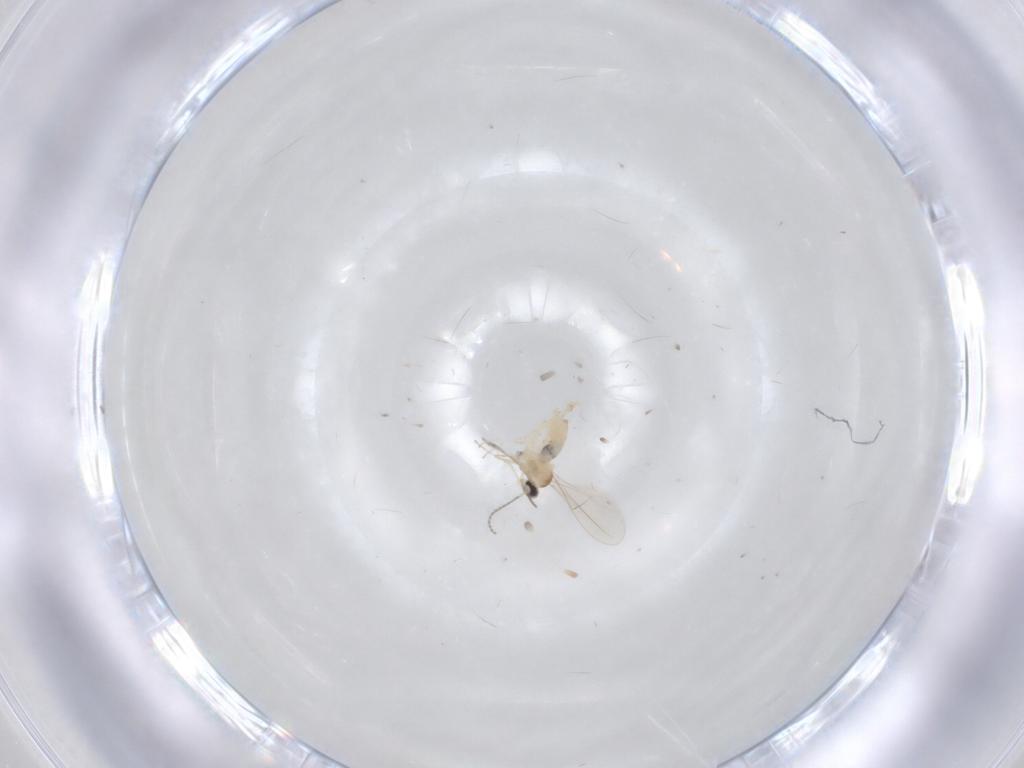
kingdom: Animalia
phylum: Arthropoda
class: Insecta
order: Diptera
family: Cecidomyiidae
